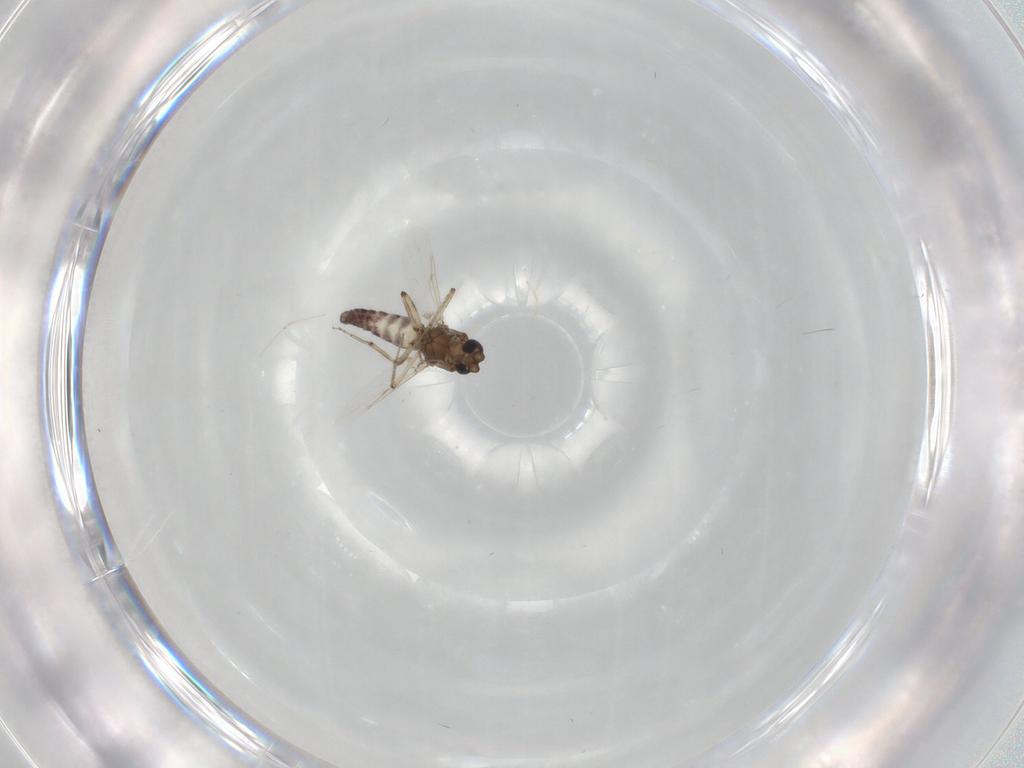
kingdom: Animalia
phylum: Arthropoda
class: Insecta
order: Diptera
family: Ceratopogonidae
